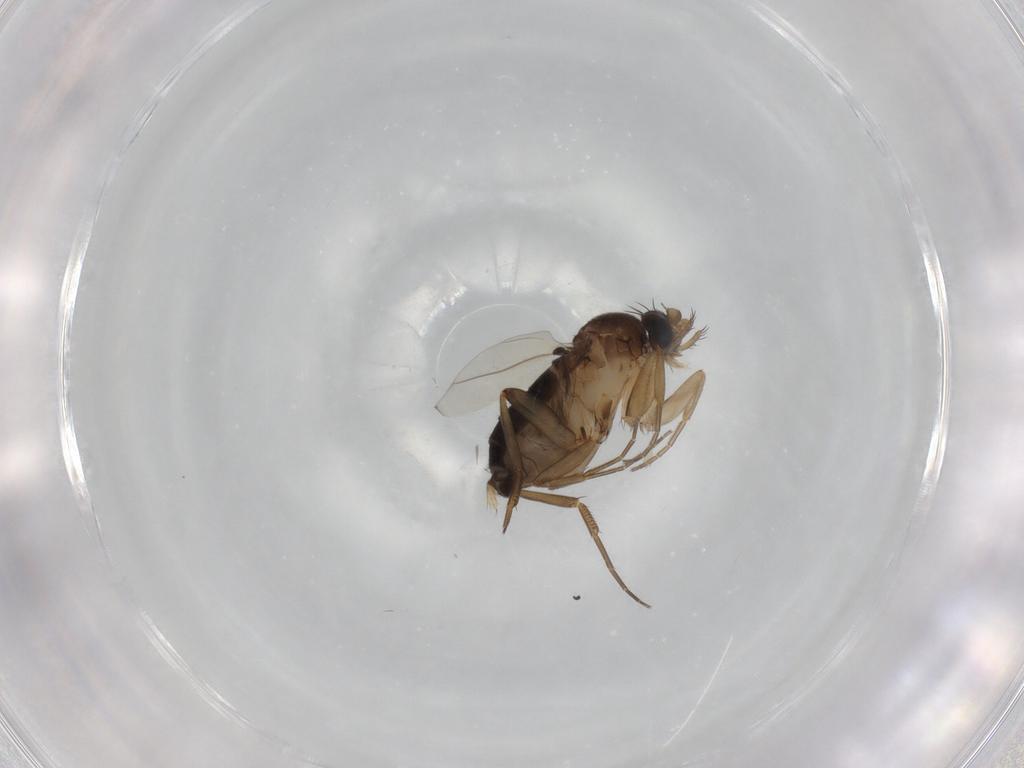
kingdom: Animalia
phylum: Arthropoda
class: Insecta
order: Diptera
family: Phoridae
